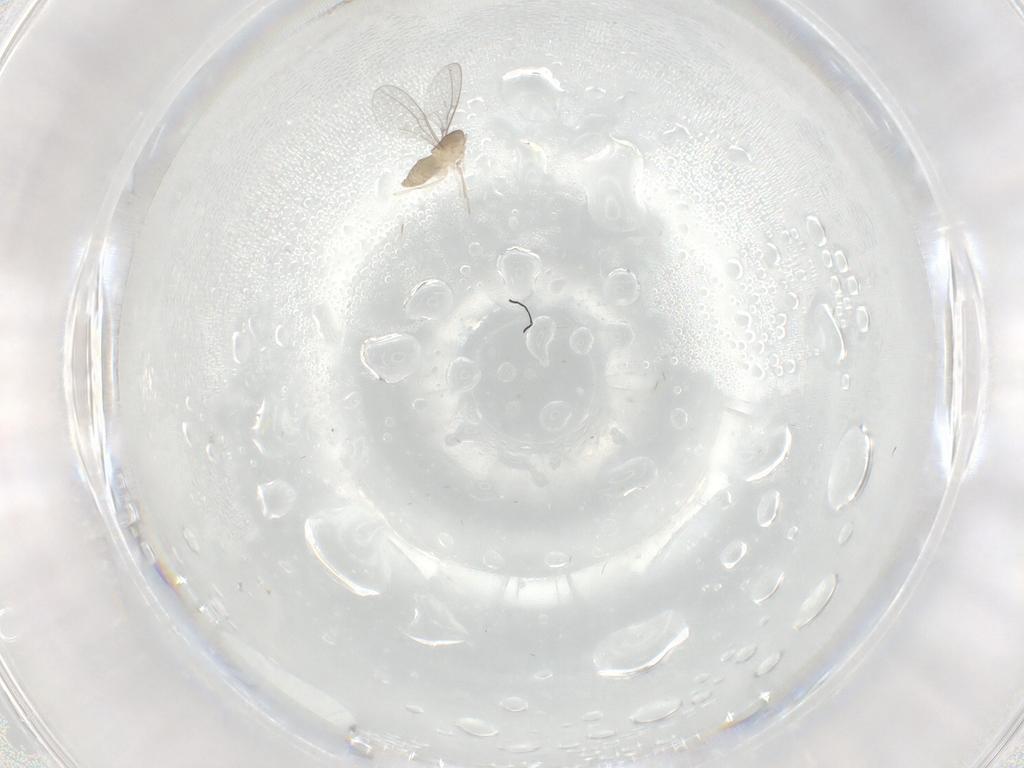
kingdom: Animalia
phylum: Arthropoda
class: Insecta
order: Diptera
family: Cecidomyiidae
